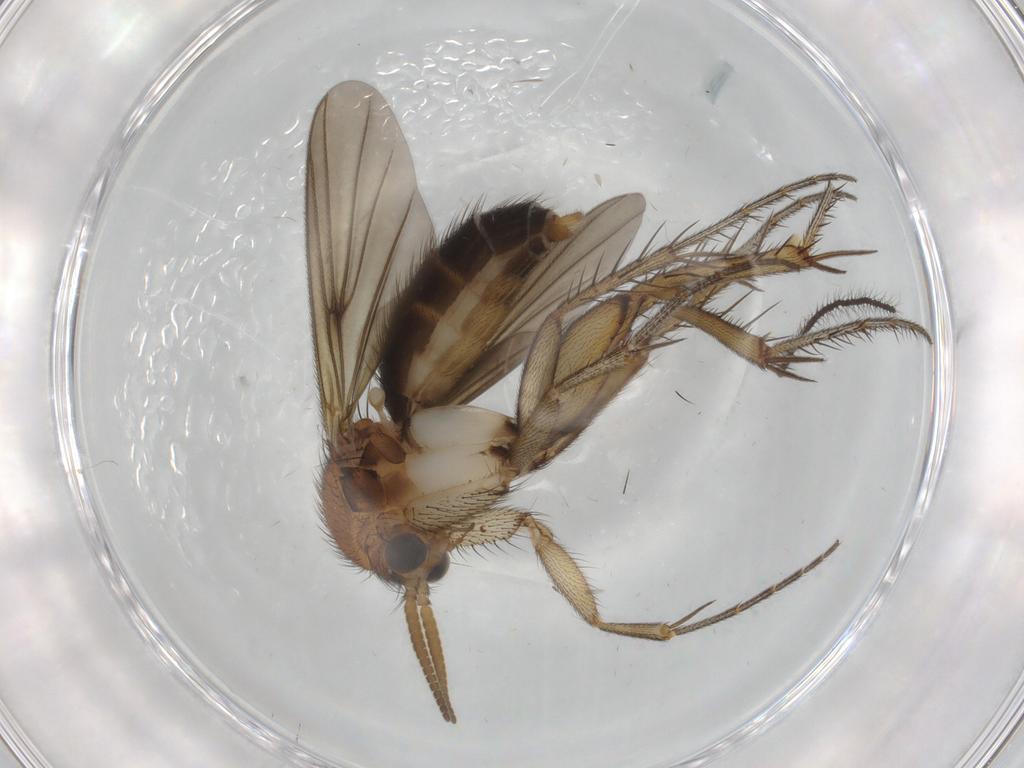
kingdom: Animalia
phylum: Arthropoda
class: Insecta
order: Diptera
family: Mycetophilidae
